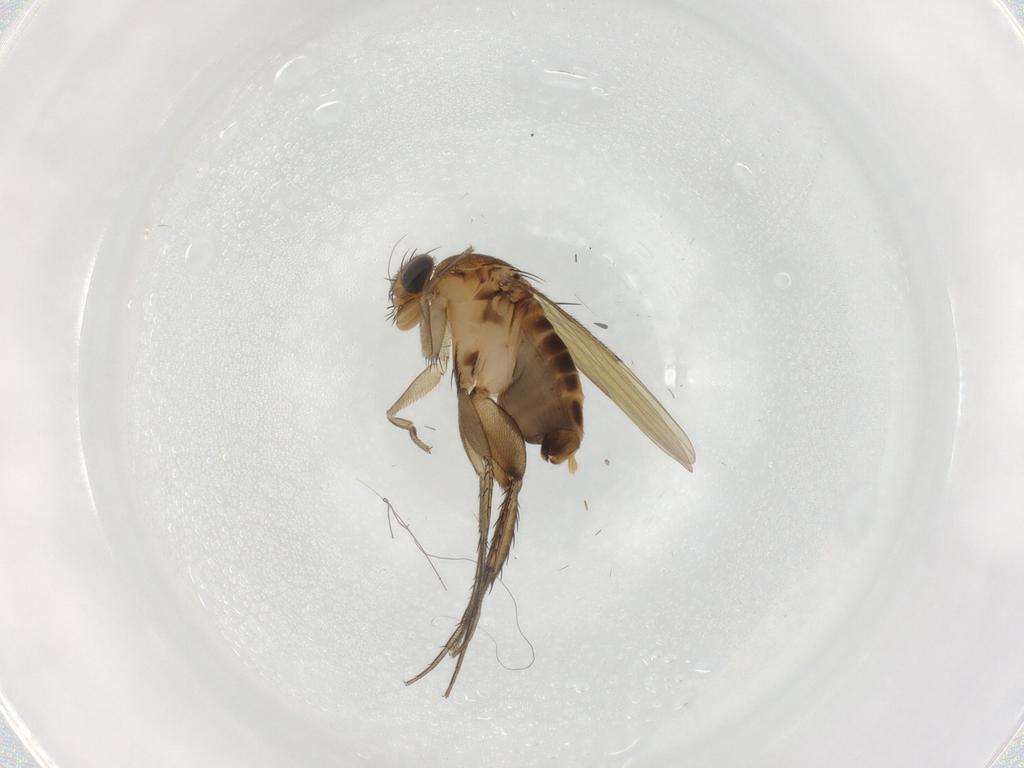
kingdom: Animalia
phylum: Arthropoda
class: Insecta
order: Diptera
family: Phoridae
